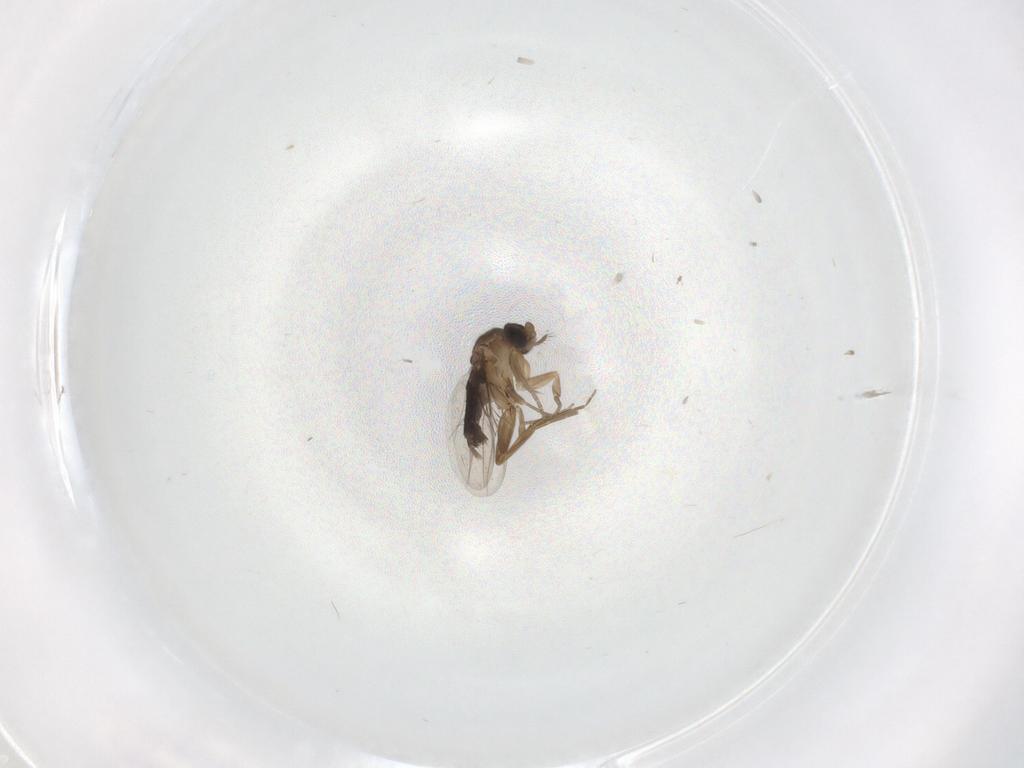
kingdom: Animalia
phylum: Arthropoda
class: Insecta
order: Diptera
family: Phoridae
